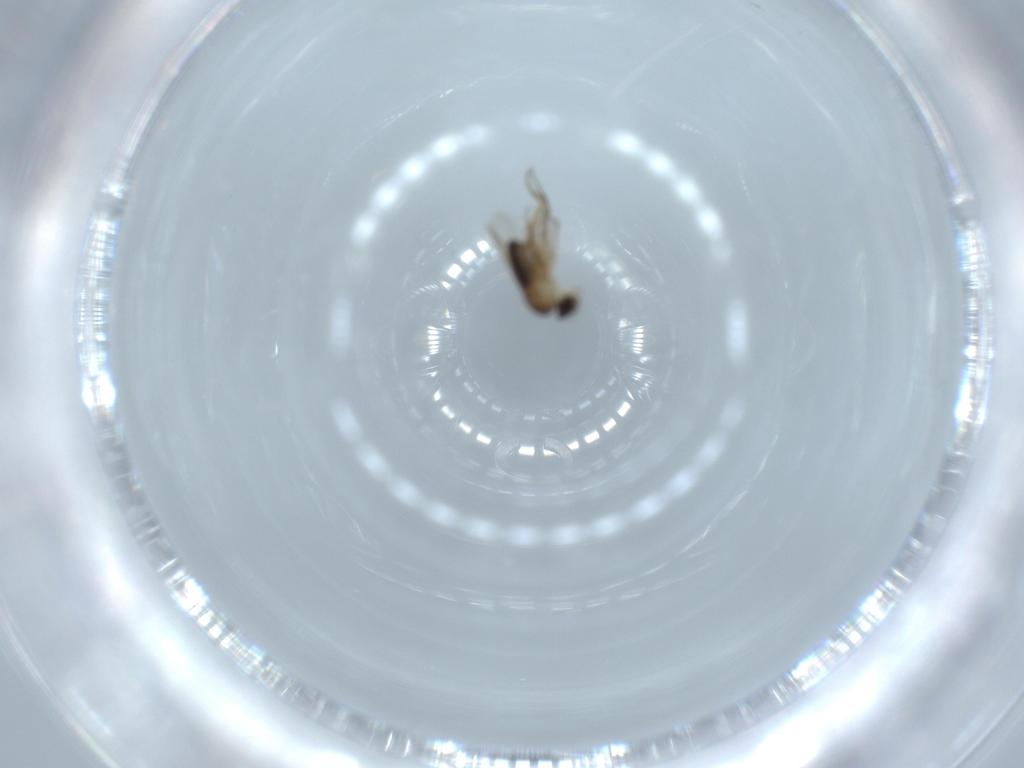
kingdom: Animalia
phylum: Arthropoda
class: Insecta
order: Diptera
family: Phoridae
